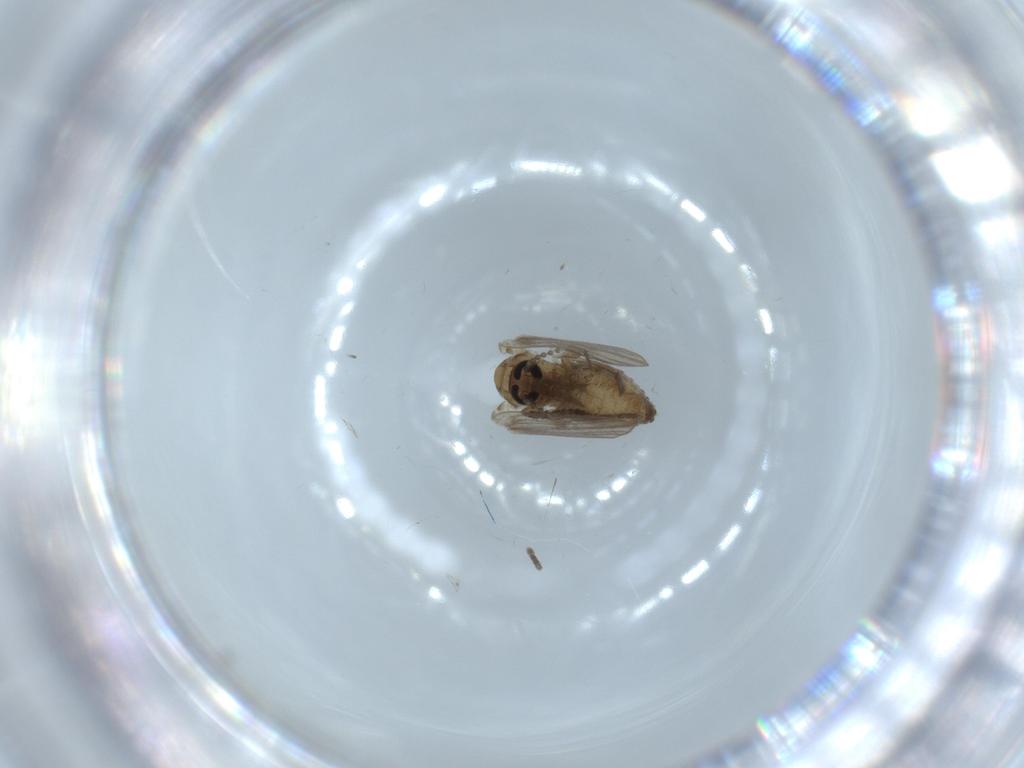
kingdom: Animalia
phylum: Arthropoda
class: Insecta
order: Diptera
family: Psychodidae
